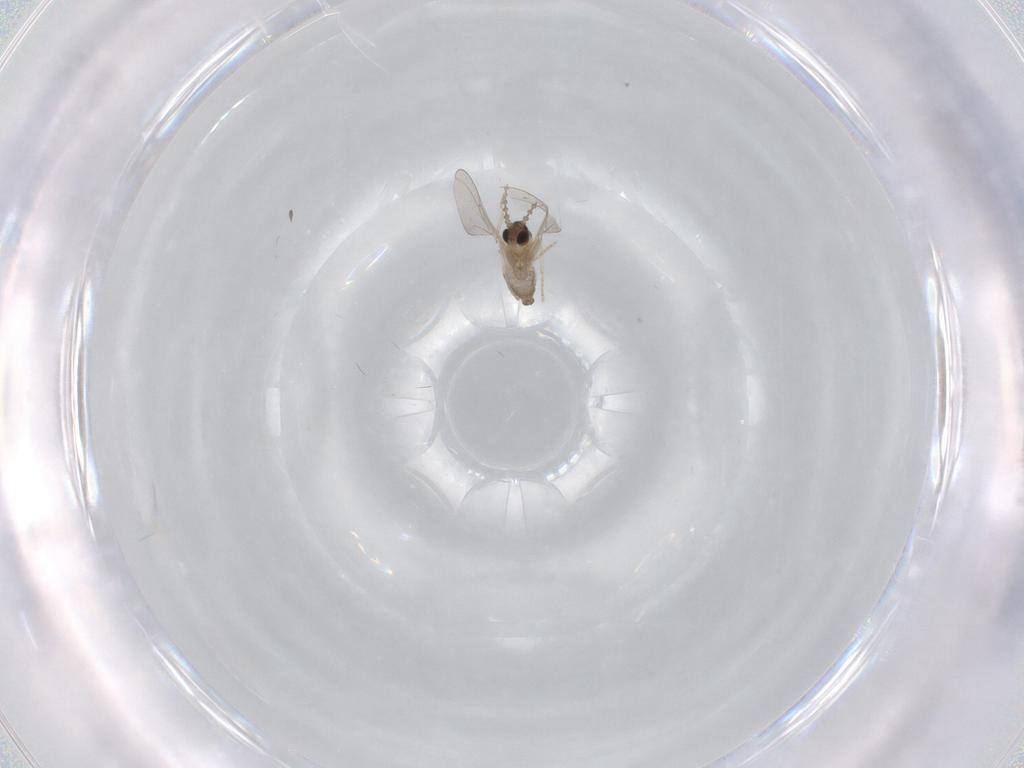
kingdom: Animalia
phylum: Arthropoda
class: Insecta
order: Diptera
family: Cecidomyiidae
